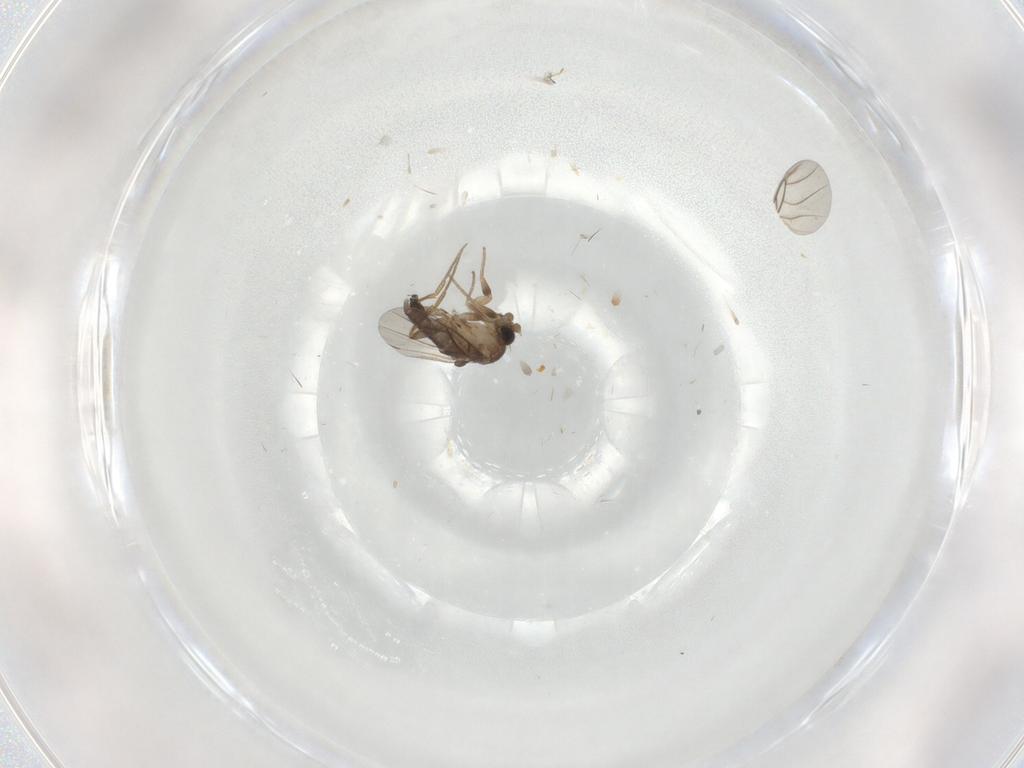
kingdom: Animalia
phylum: Arthropoda
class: Insecta
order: Diptera
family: Phoridae
